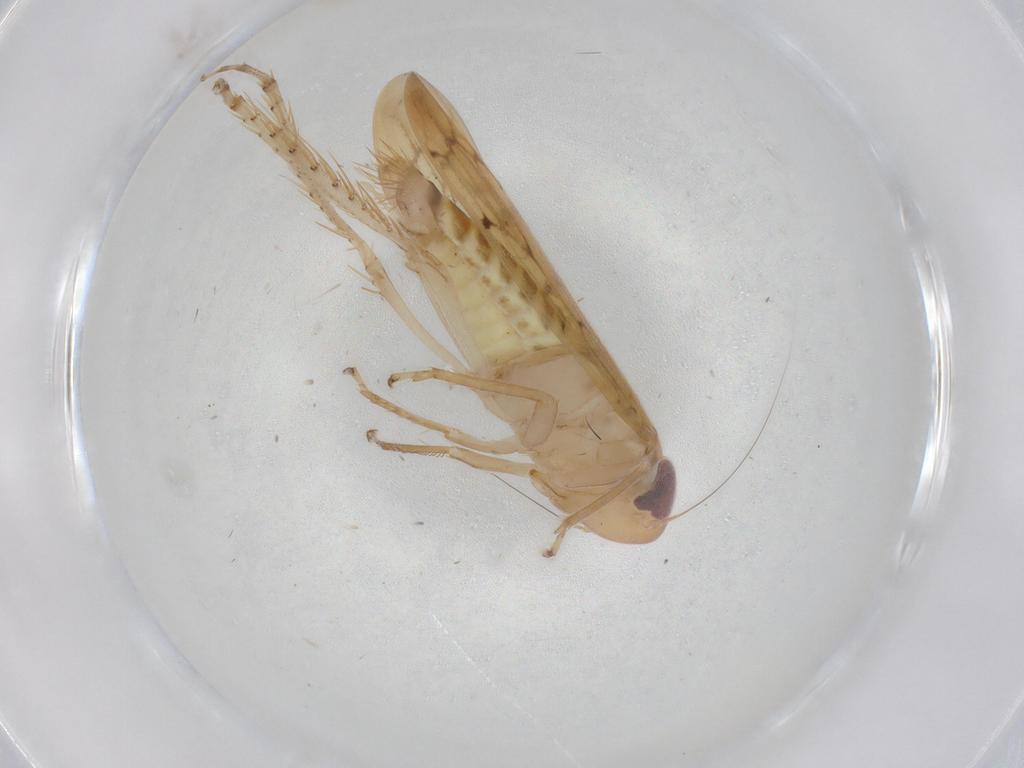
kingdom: Animalia
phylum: Arthropoda
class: Insecta
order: Hemiptera
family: Cicadellidae
